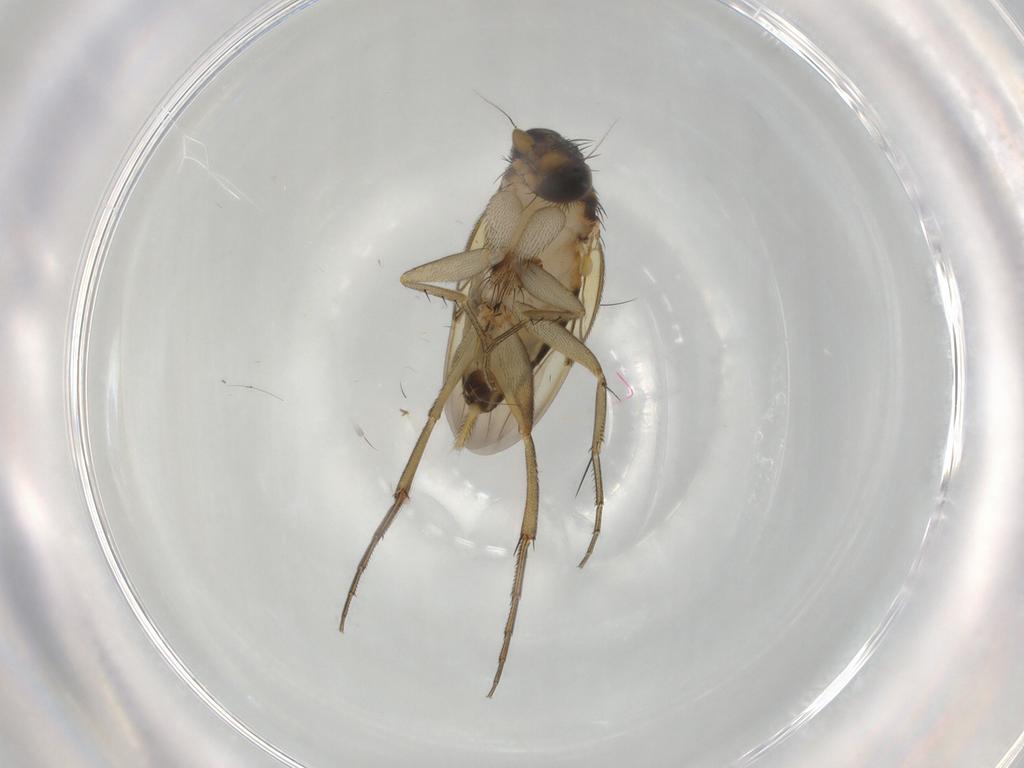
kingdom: Animalia
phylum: Arthropoda
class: Insecta
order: Diptera
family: Phoridae
